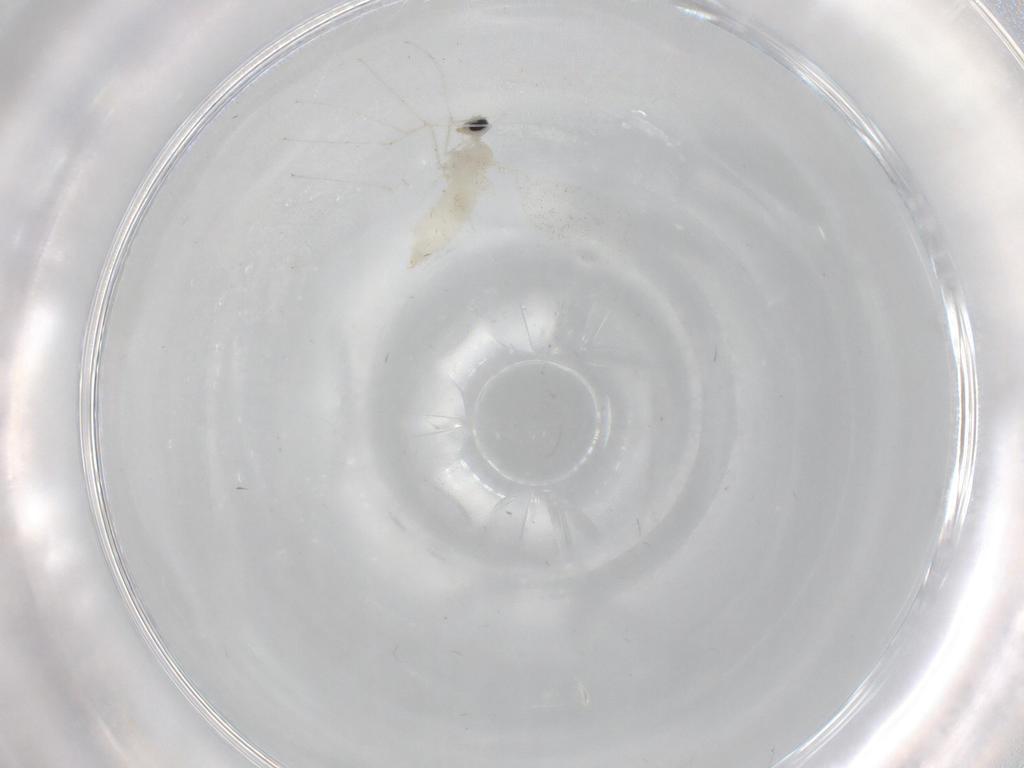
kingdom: Animalia
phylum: Arthropoda
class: Insecta
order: Diptera
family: Cecidomyiidae
